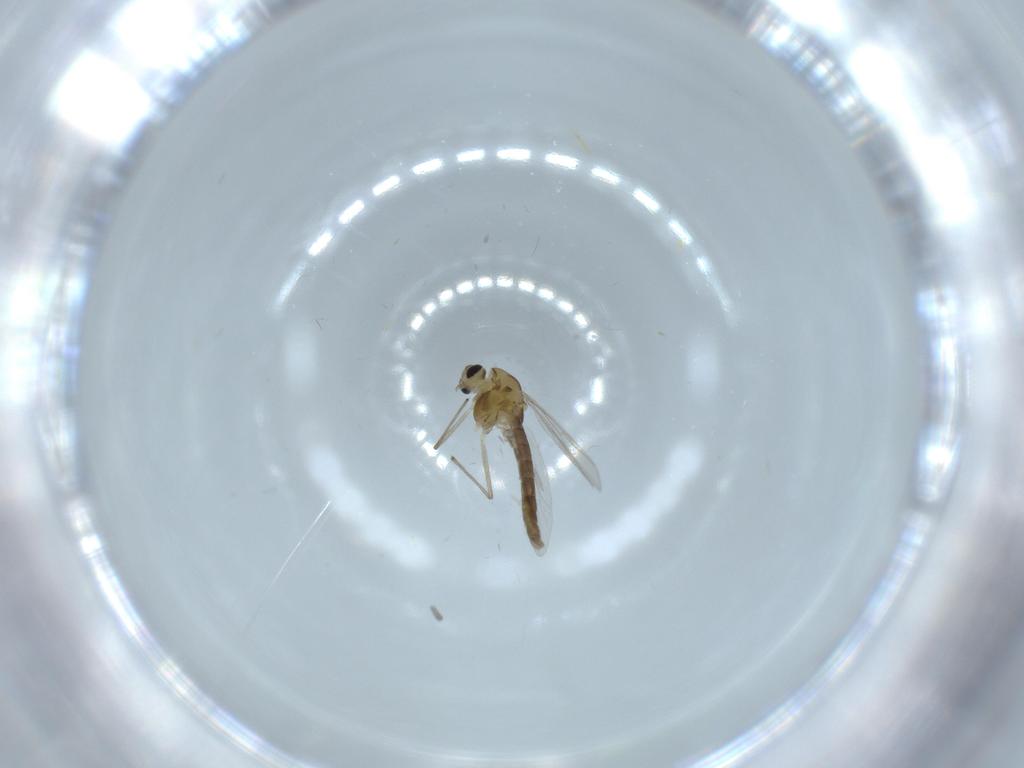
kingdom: Animalia
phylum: Arthropoda
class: Insecta
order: Diptera
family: Chironomidae
